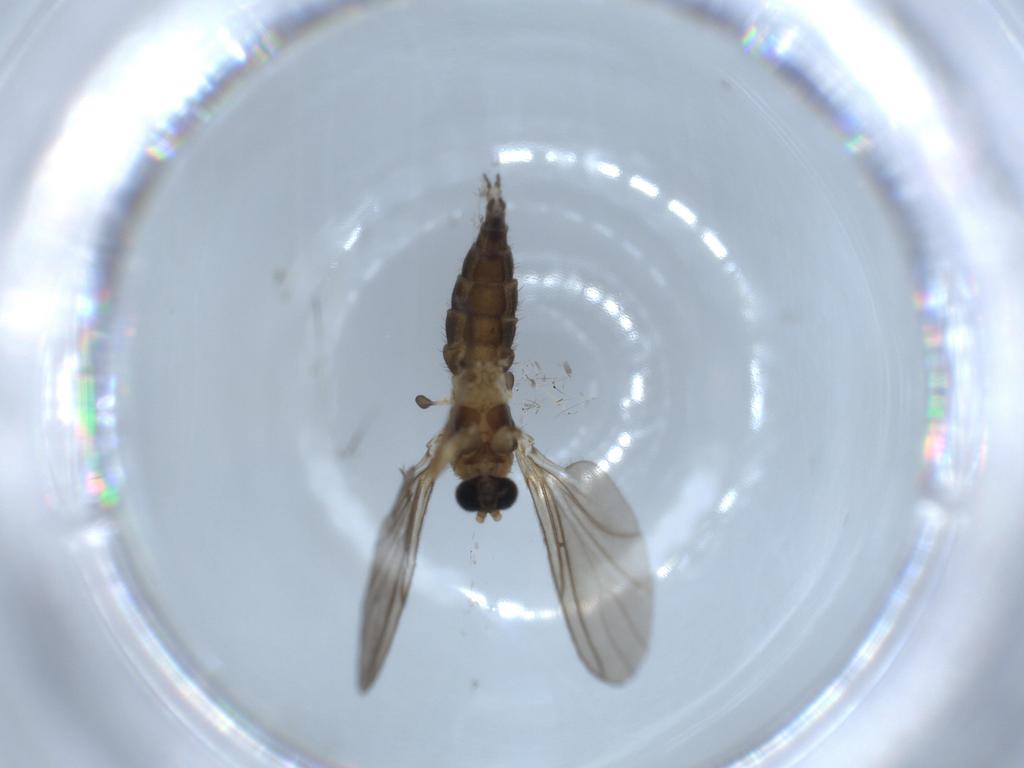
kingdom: Animalia
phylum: Arthropoda
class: Insecta
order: Diptera
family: Sciaridae
